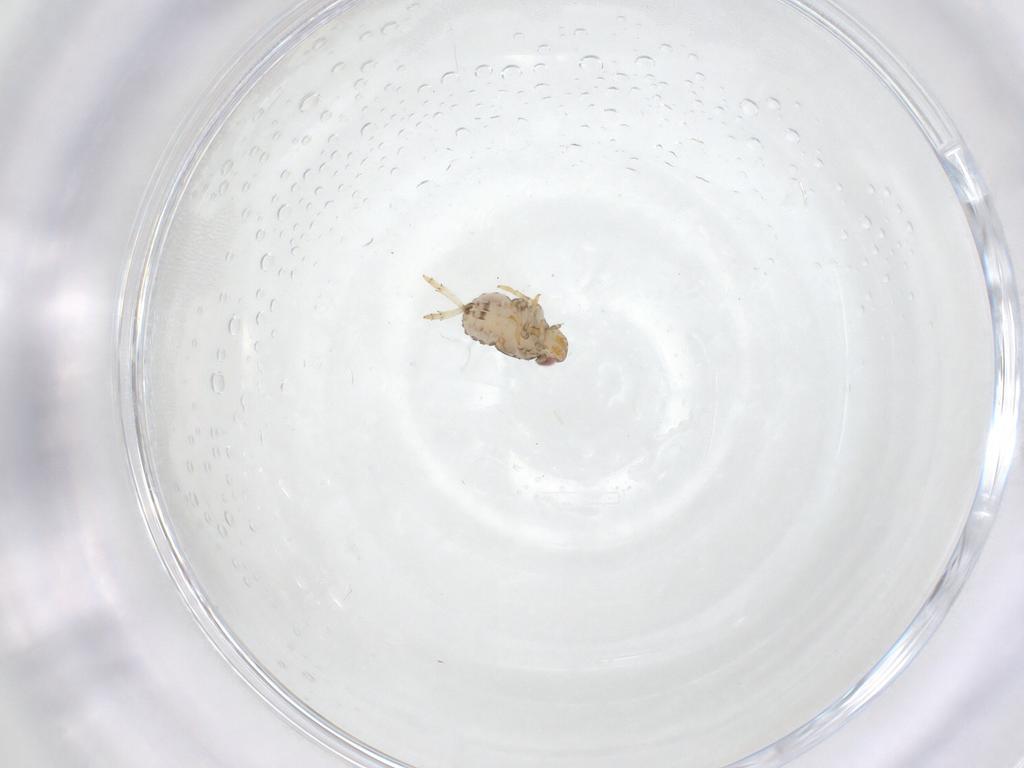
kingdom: Animalia
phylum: Arthropoda
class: Insecta
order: Hemiptera
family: Issidae
